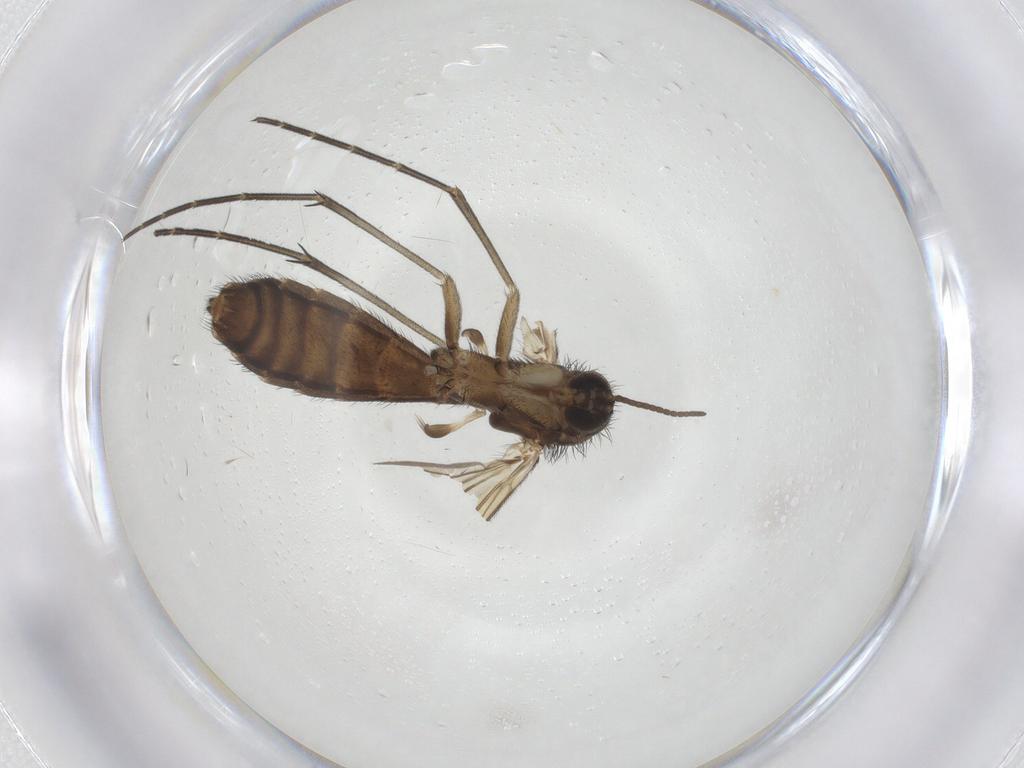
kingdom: Animalia
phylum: Arthropoda
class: Insecta
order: Diptera
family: Keroplatidae
